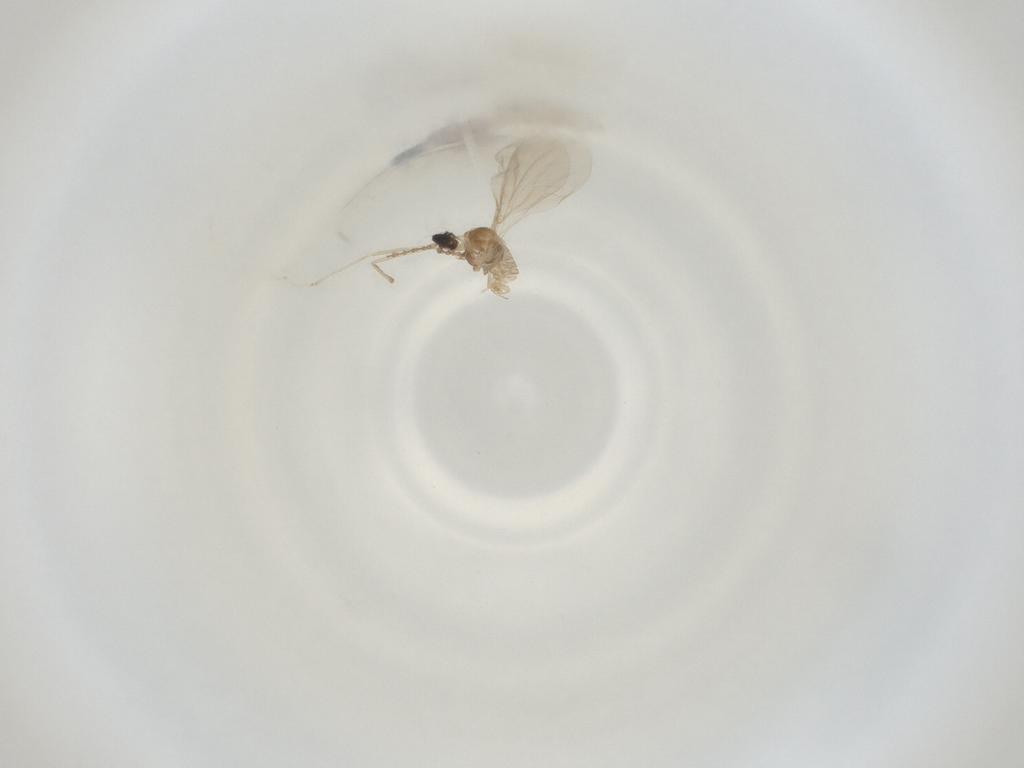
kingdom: Animalia
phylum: Arthropoda
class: Insecta
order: Diptera
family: Cecidomyiidae
